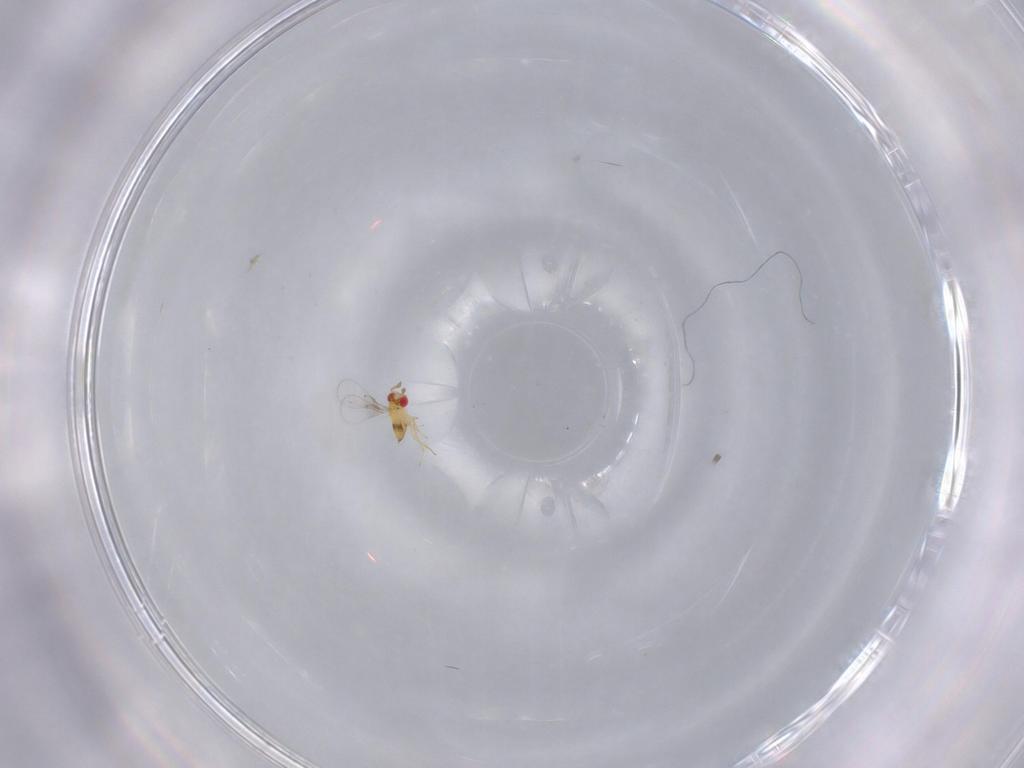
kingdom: Animalia
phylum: Arthropoda
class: Insecta
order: Hymenoptera
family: Trichogrammatidae
